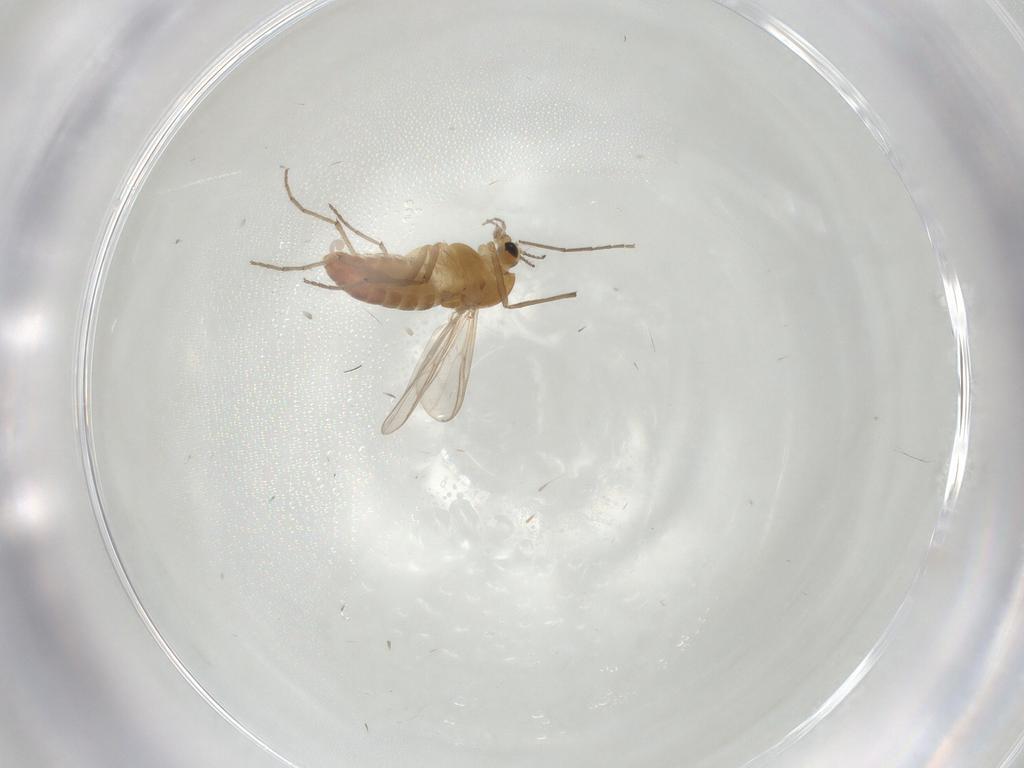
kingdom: Animalia
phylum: Arthropoda
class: Insecta
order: Diptera
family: Chironomidae
